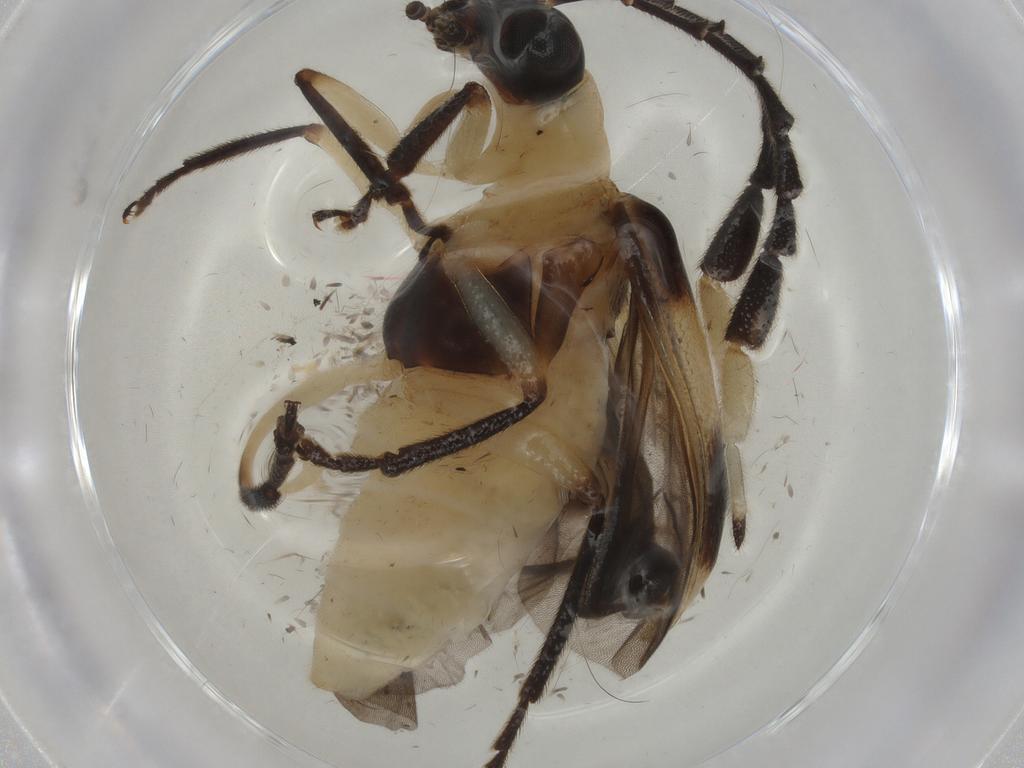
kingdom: Animalia
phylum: Arthropoda
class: Insecta
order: Coleoptera
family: Chrysomelidae
